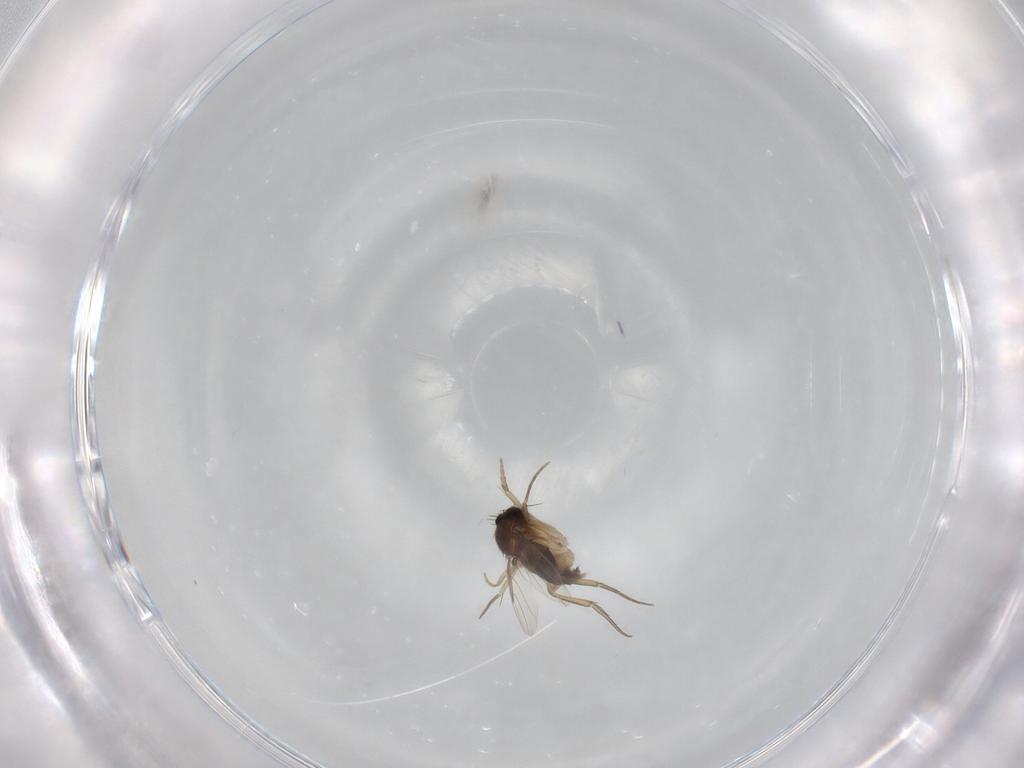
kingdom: Animalia
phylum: Arthropoda
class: Insecta
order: Diptera
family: Phoridae
